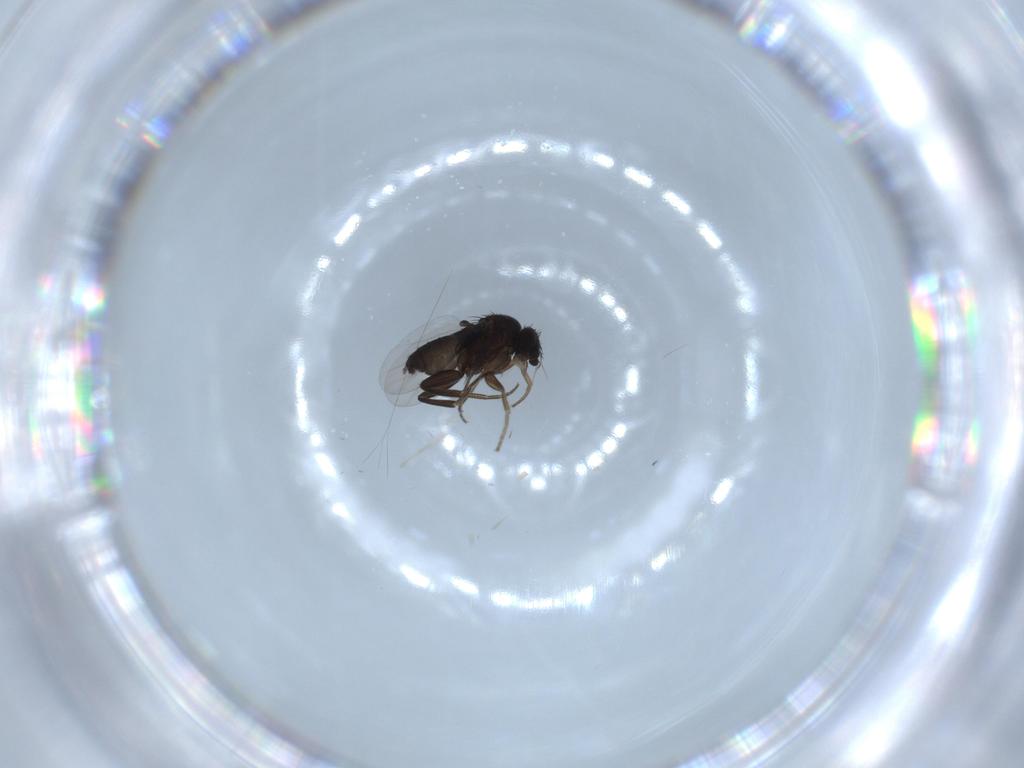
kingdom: Animalia
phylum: Arthropoda
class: Insecta
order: Diptera
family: Phoridae
